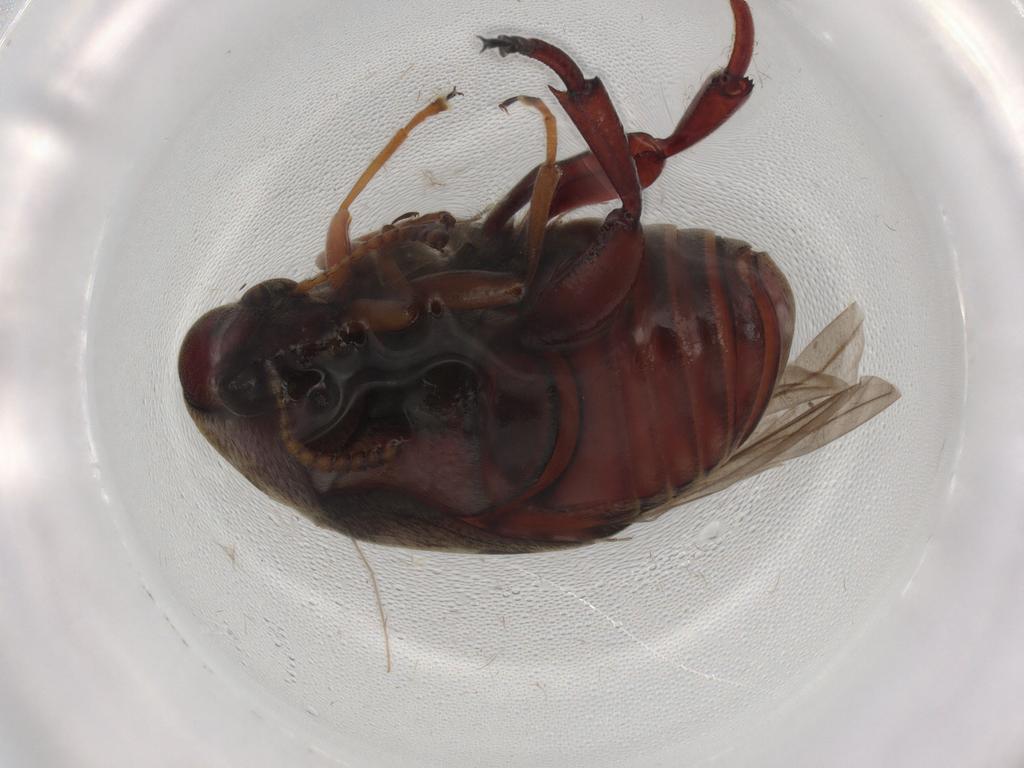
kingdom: Animalia
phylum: Arthropoda
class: Insecta
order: Coleoptera
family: Chrysomelidae
